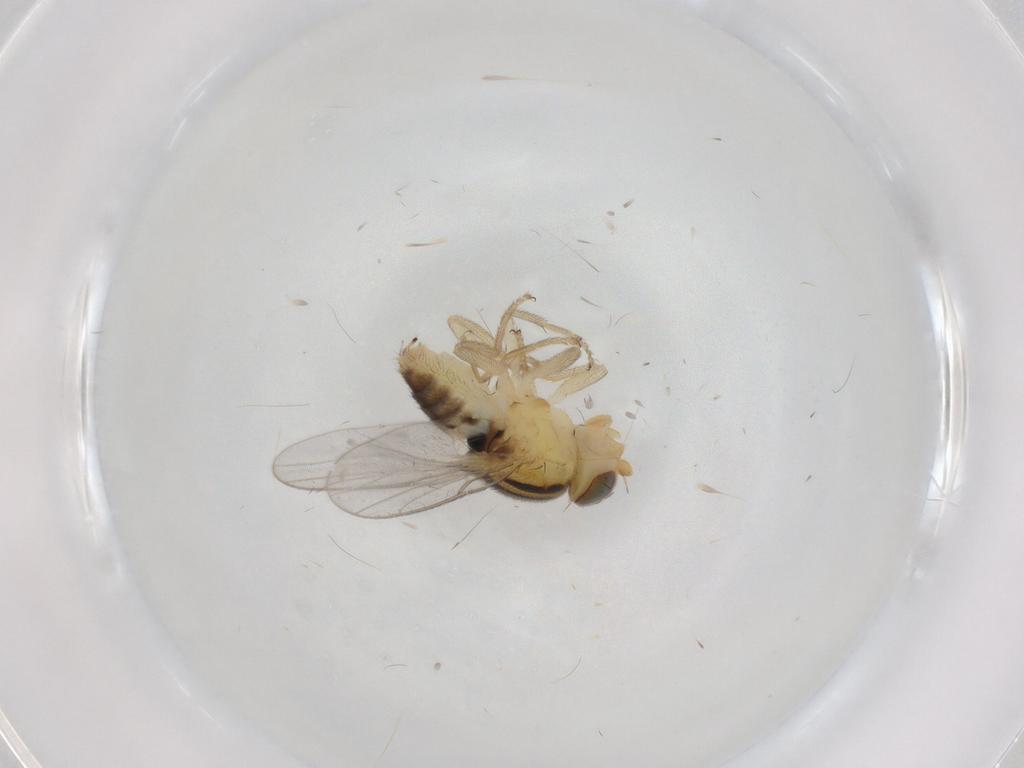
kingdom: Animalia
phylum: Arthropoda
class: Insecta
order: Diptera
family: Chloropidae
